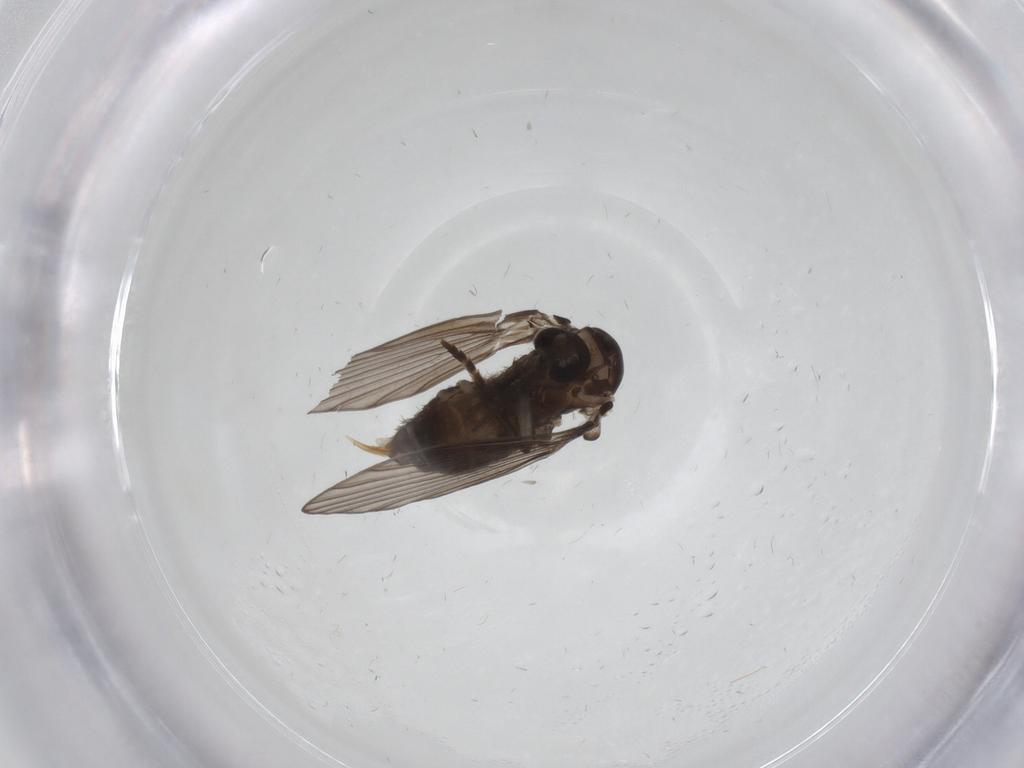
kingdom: Animalia
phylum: Arthropoda
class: Insecta
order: Diptera
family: Psychodidae
